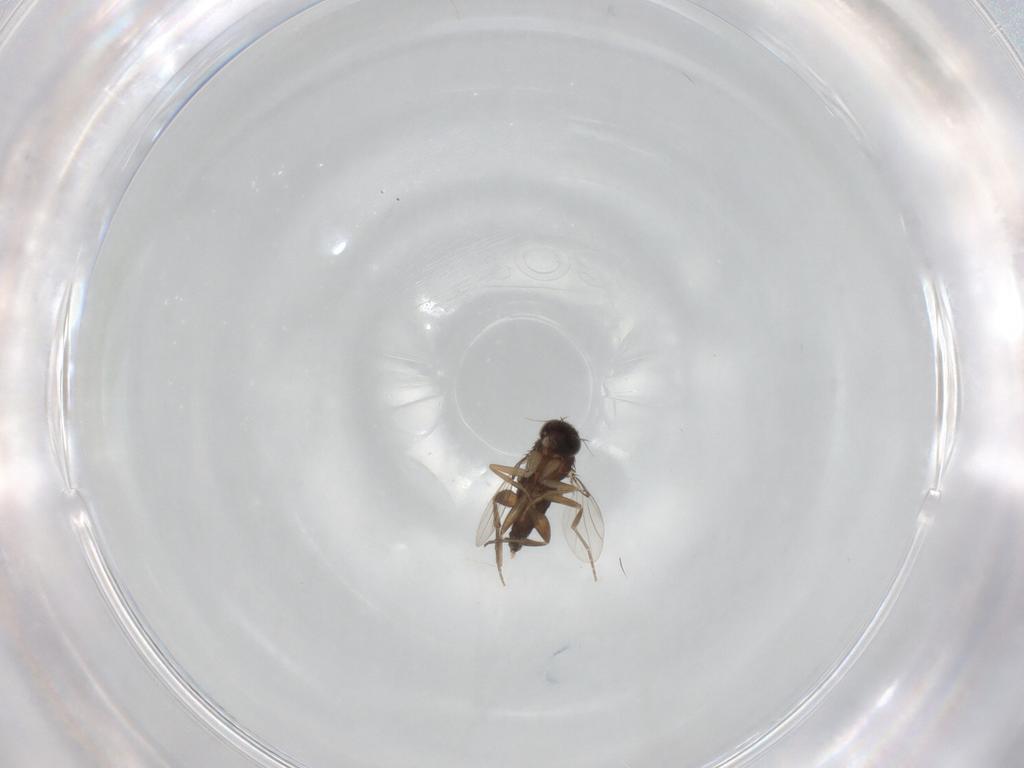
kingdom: Animalia
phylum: Arthropoda
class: Insecta
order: Diptera
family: Phoridae
